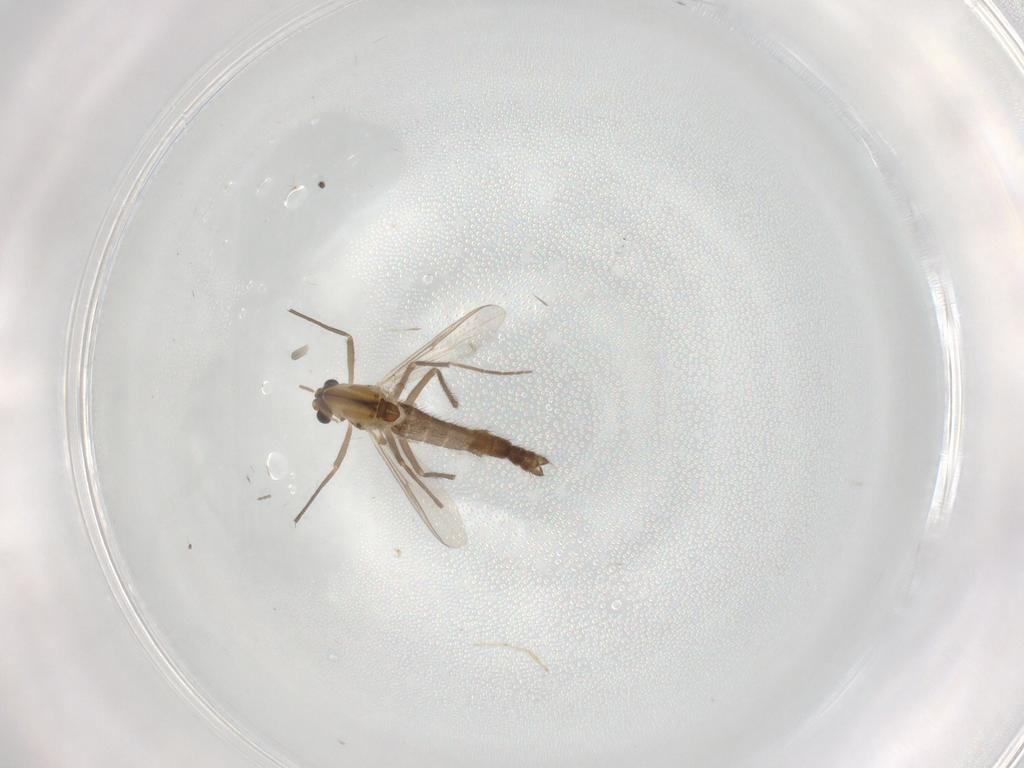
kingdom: Animalia
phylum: Arthropoda
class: Insecta
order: Diptera
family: Chironomidae
